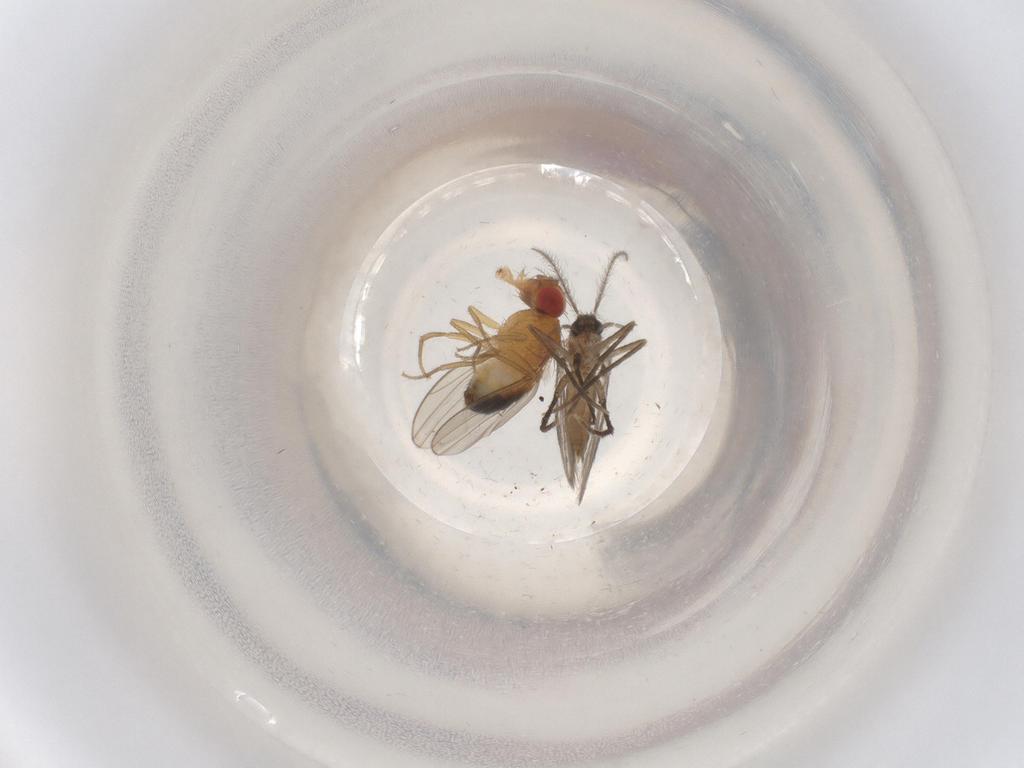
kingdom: Animalia
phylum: Arthropoda
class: Insecta
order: Diptera
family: Psychodidae
